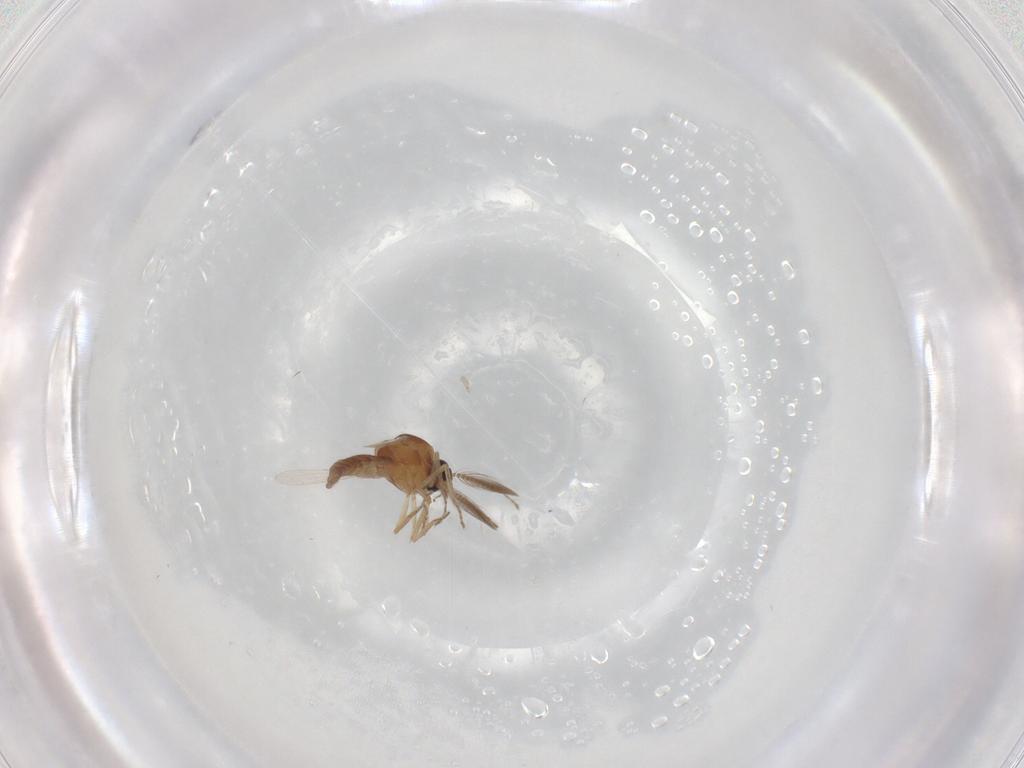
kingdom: Animalia
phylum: Arthropoda
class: Insecta
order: Diptera
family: Ceratopogonidae
